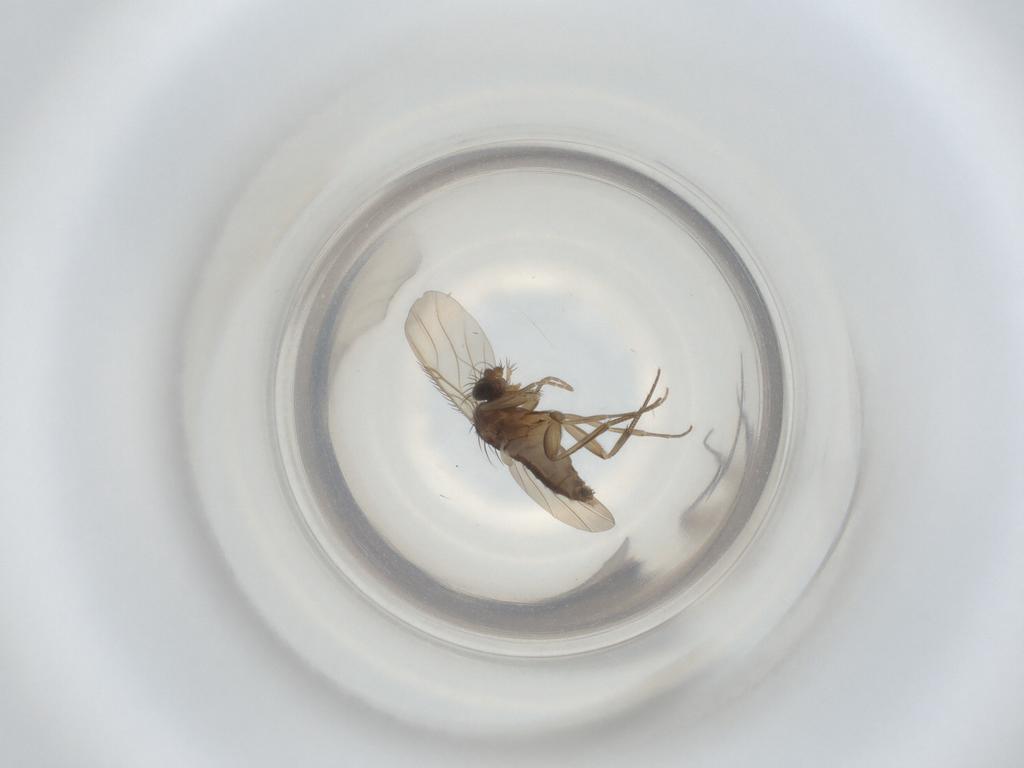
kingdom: Animalia
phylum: Arthropoda
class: Insecta
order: Diptera
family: Phoridae
